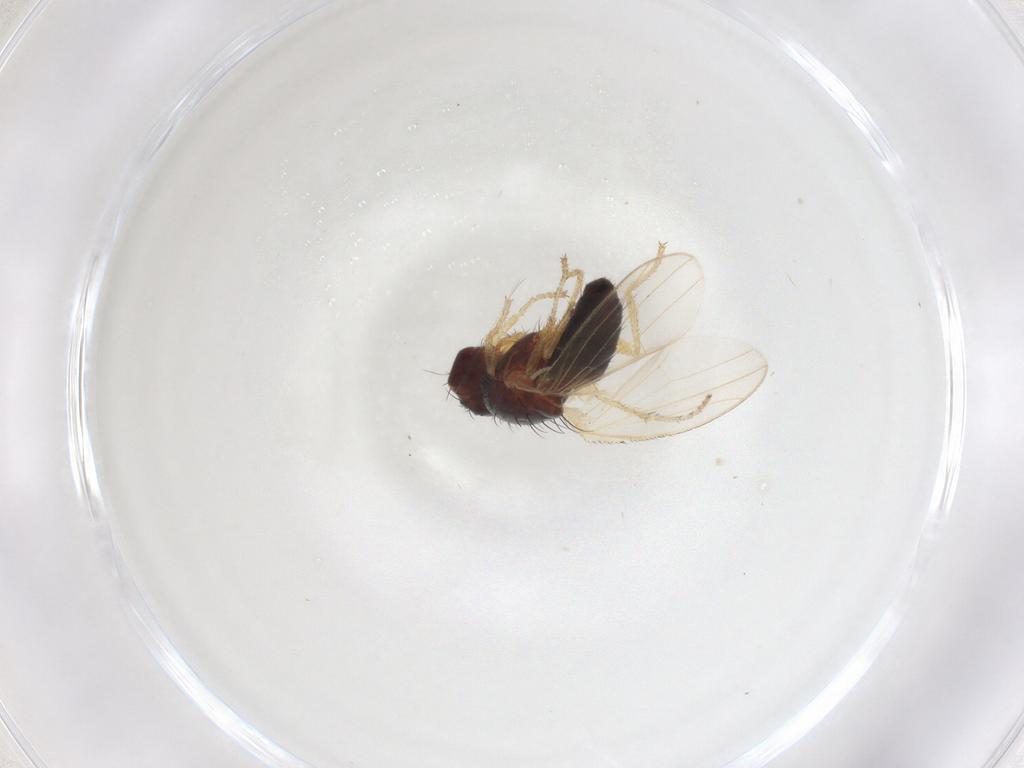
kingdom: Animalia
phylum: Arthropoda
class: Insecta
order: Diptera
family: Heleomyzidae
